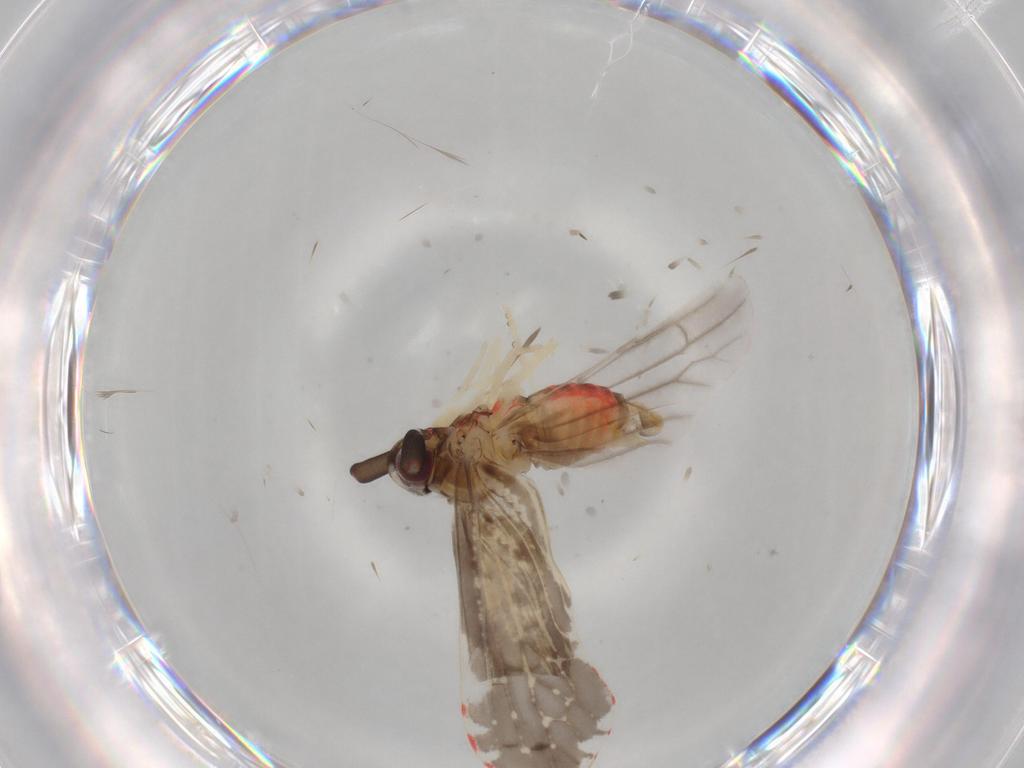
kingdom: Animalia
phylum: Arthropoda
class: Insecta
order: Hemiptera
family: Derbidae
